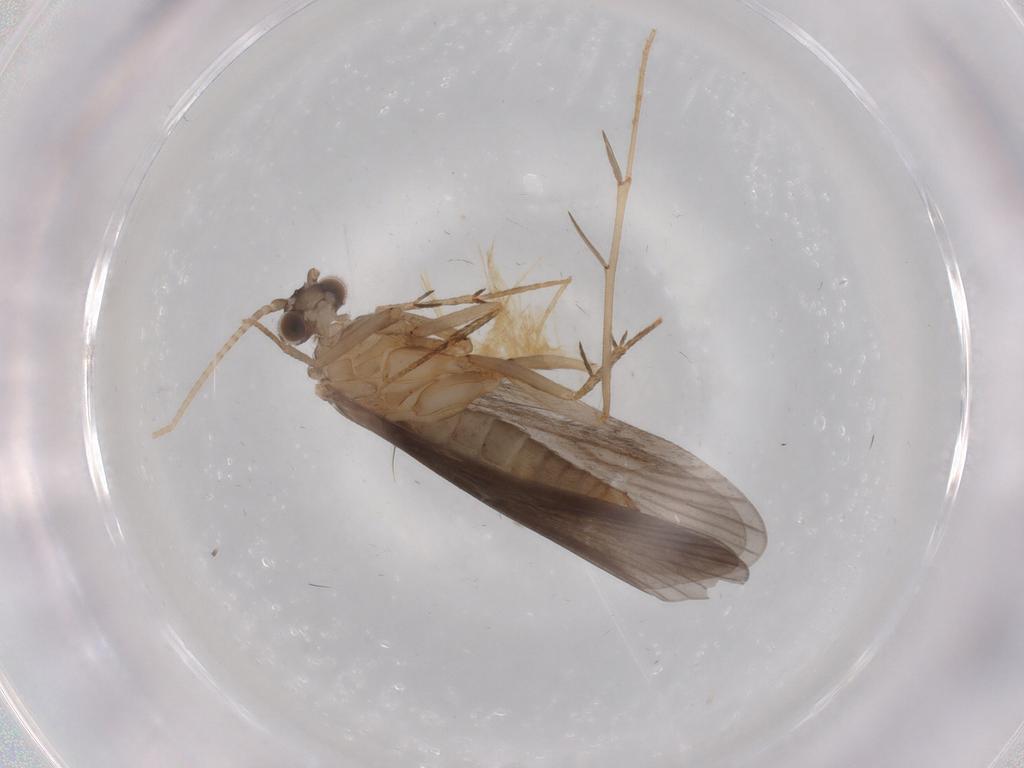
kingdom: Animalia
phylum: Arthropoda
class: Insecta
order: Trichoptera
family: Philopotamidae
